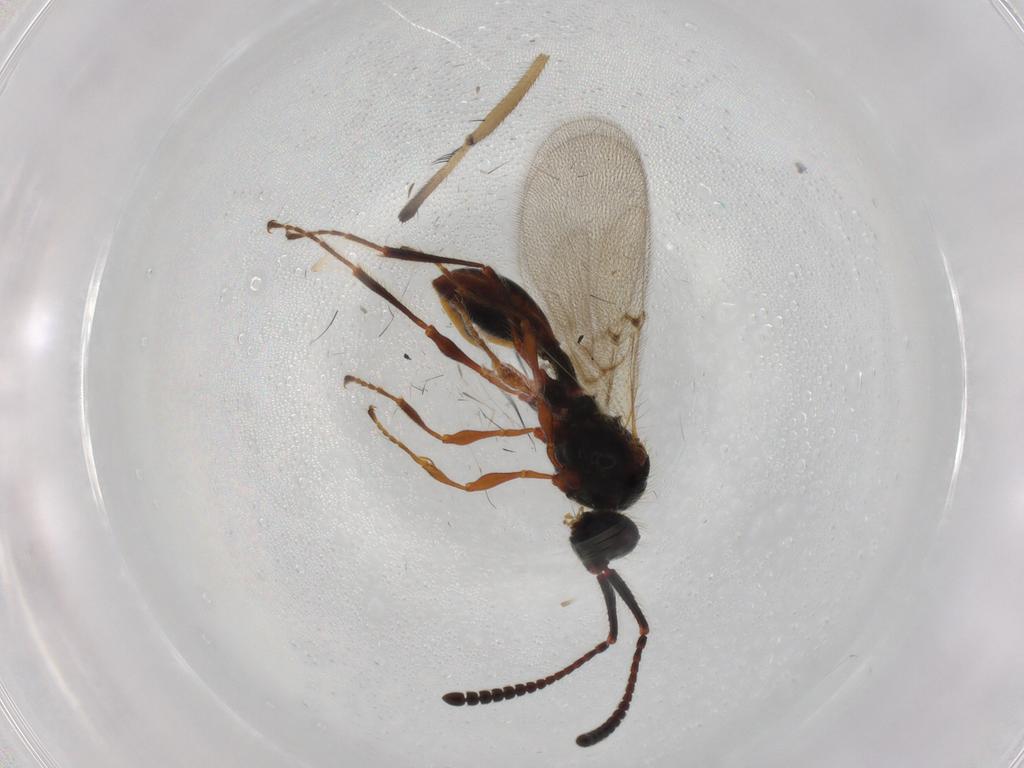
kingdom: Animalia
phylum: Arthropoda
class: Insecta
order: Hymenoptera
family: Diapriidae
